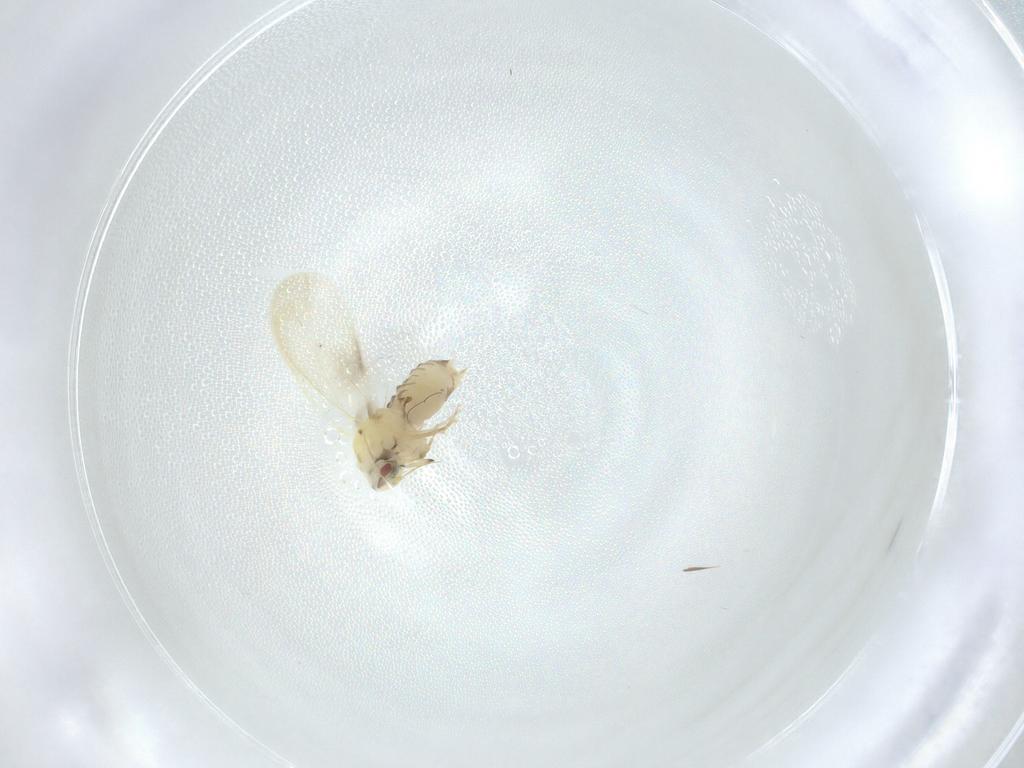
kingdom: Animalia
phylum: Arthropoda
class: Insecta
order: Hemiptera
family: Aleyrodidae
